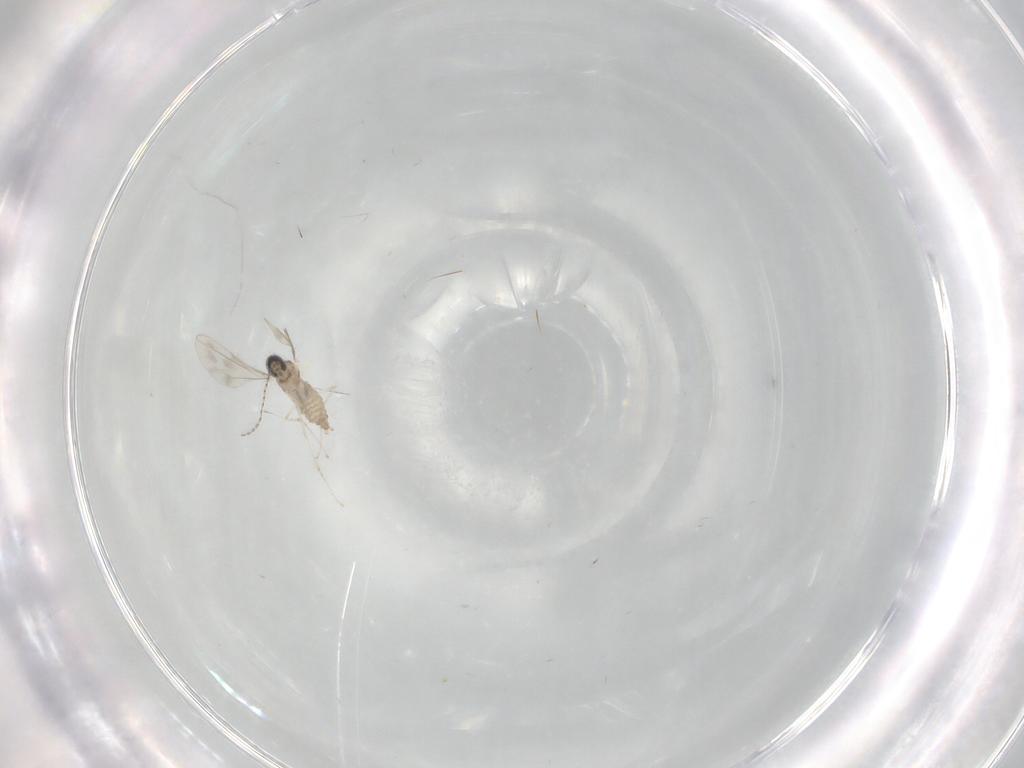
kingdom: Animalia
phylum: Arthropoda
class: Insecta
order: Diptera
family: Cecidomyiidae
